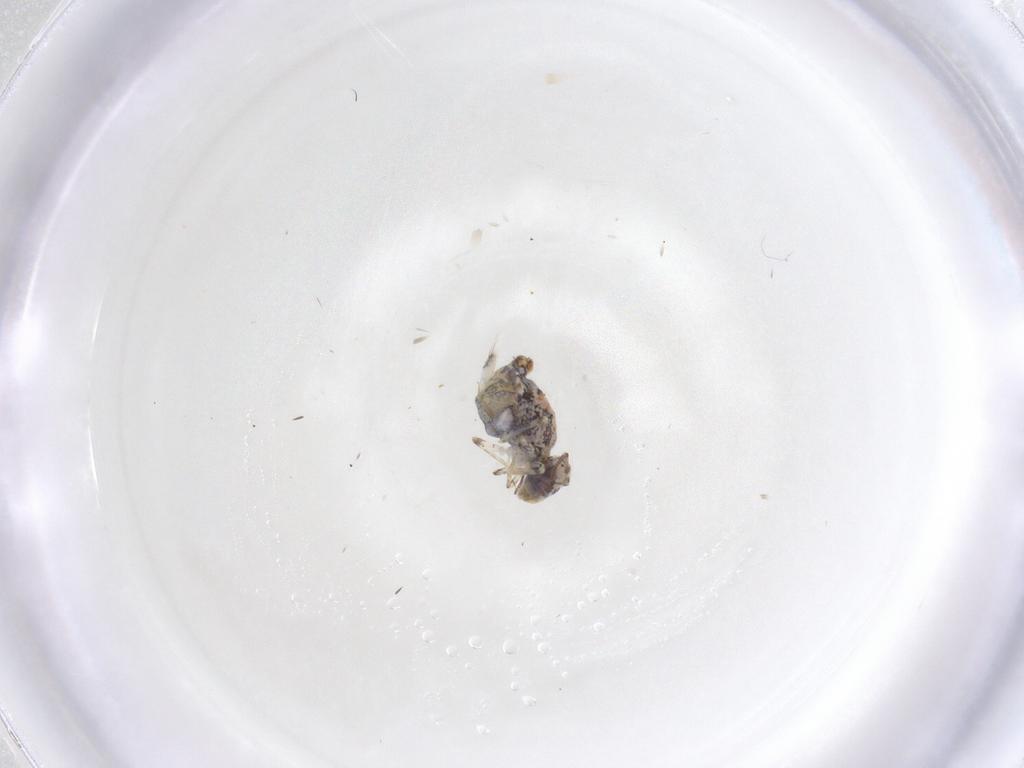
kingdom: Animalia
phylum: Arthropoda
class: Collembola
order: Symphypleona
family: Bourletiellidae
